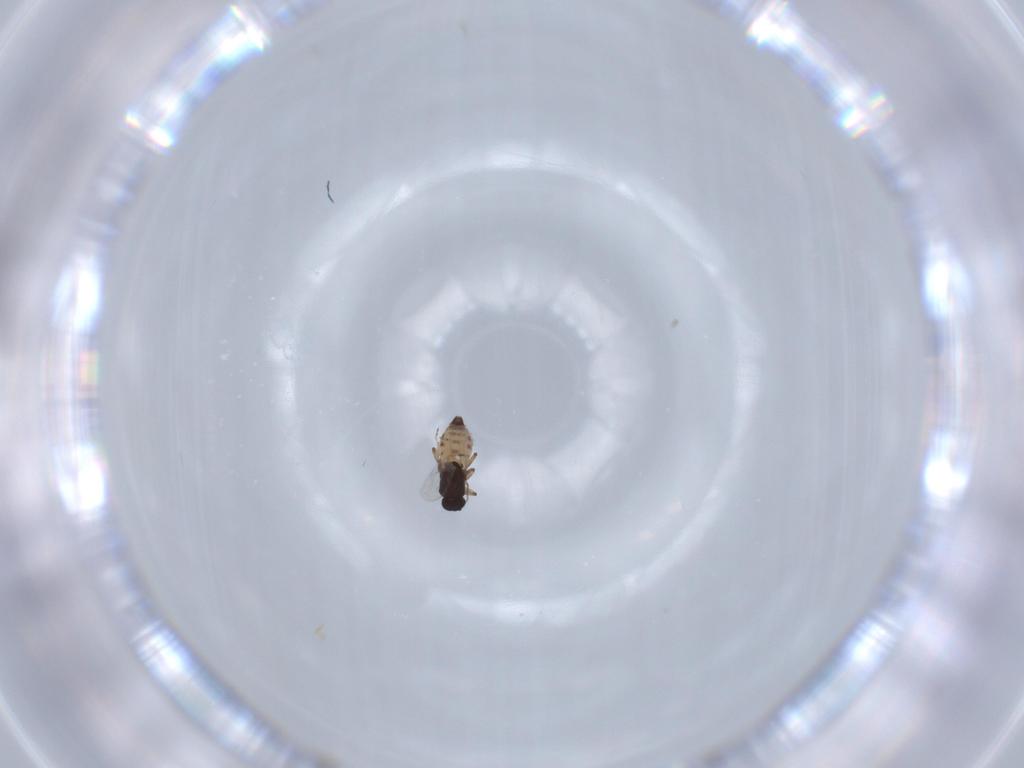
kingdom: Animalia
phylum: Arthropoda
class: Insecta
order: Diptera
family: Ceratopogonidae
